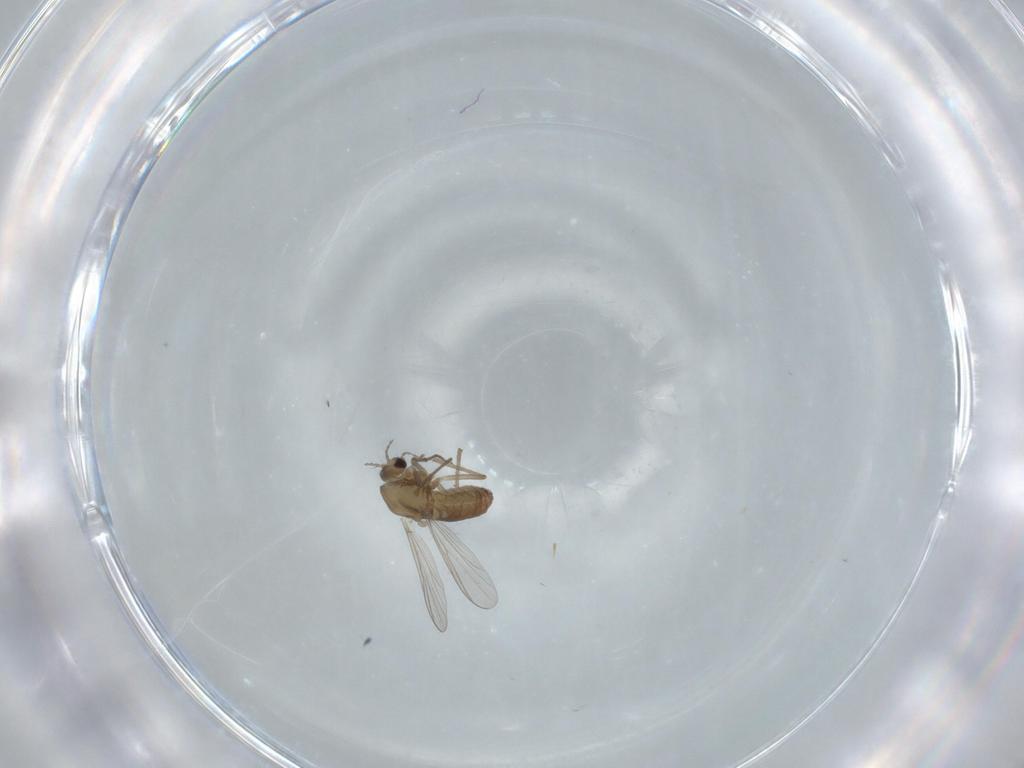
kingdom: Animalia
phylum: Arthropoda
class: Insecta
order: Diptera
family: Chironomidae
